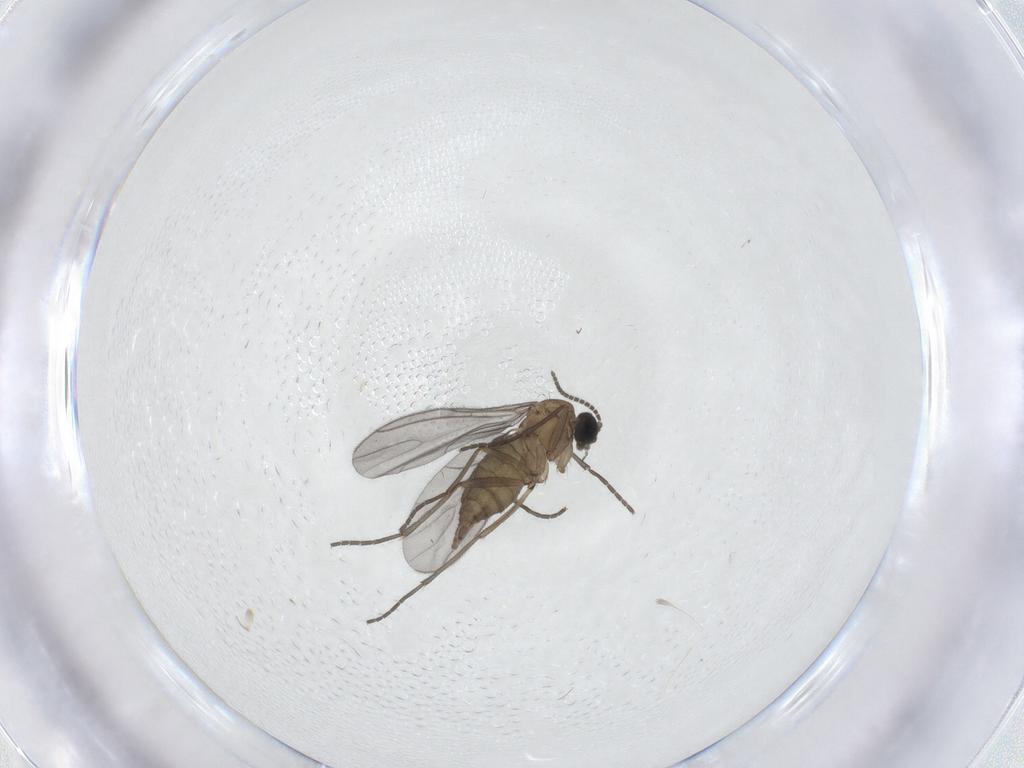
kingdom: Animalia
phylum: Arthropoda
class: Insecta
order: Diptera
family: Sciaridae
